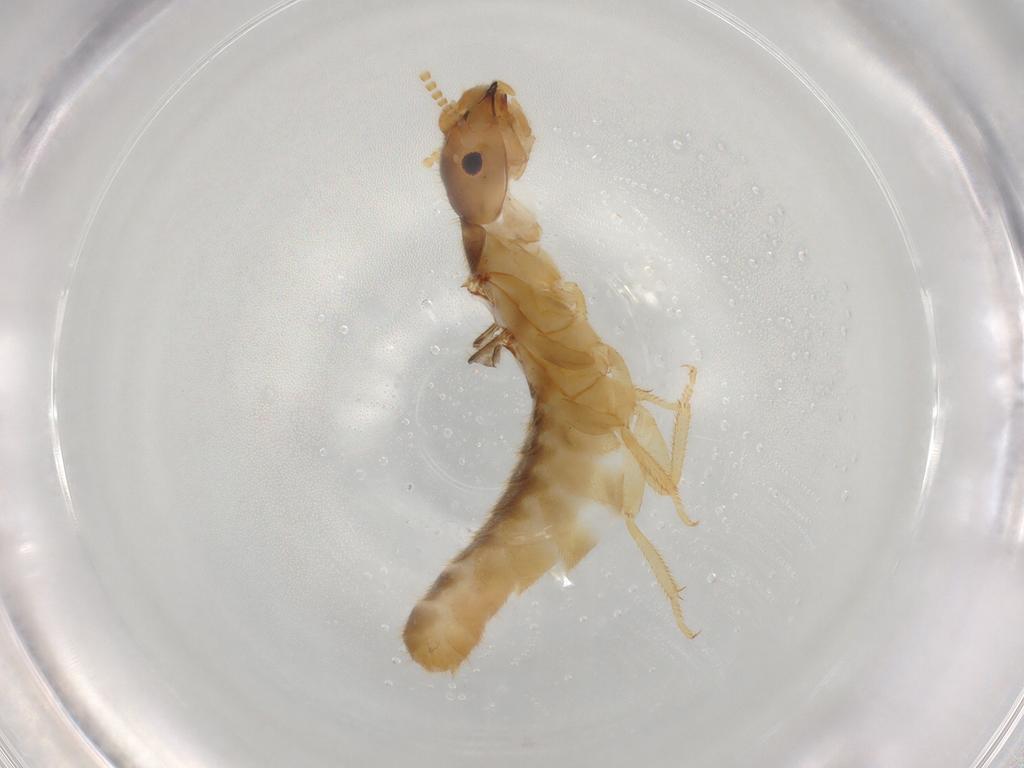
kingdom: Animalia
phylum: Arthropoda
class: Insecta
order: Blattodea
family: Rhinotermitidae
